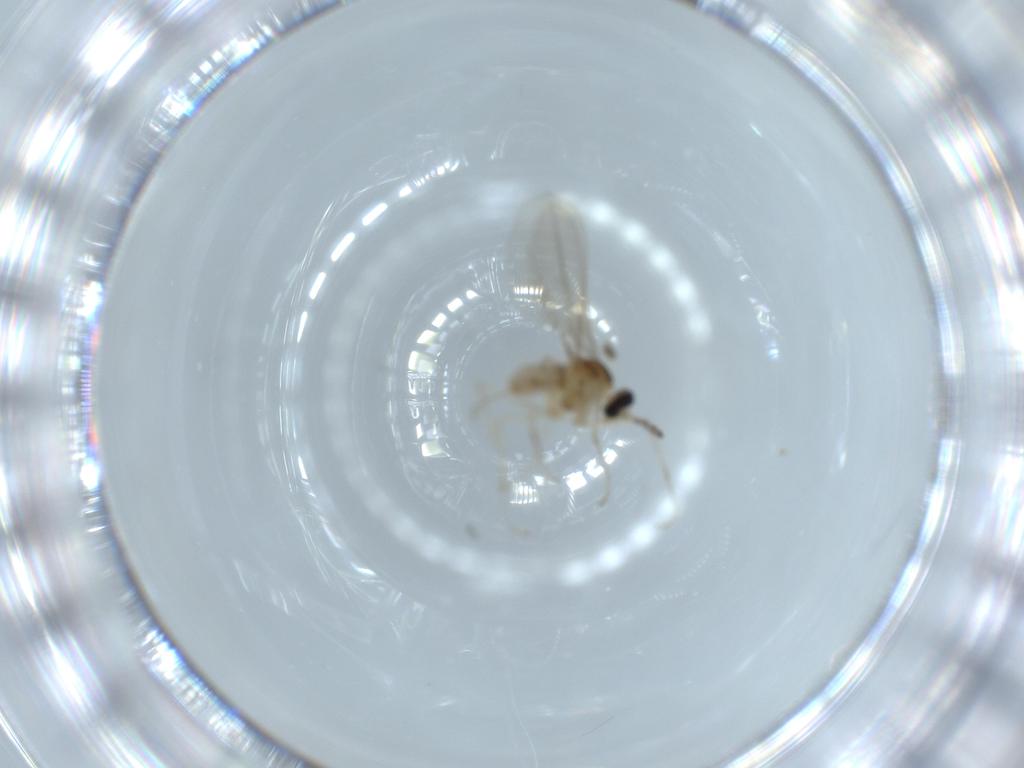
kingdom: Animalia
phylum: Arthropoda
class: Insecta
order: Diptera
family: Cecidomyiidae
